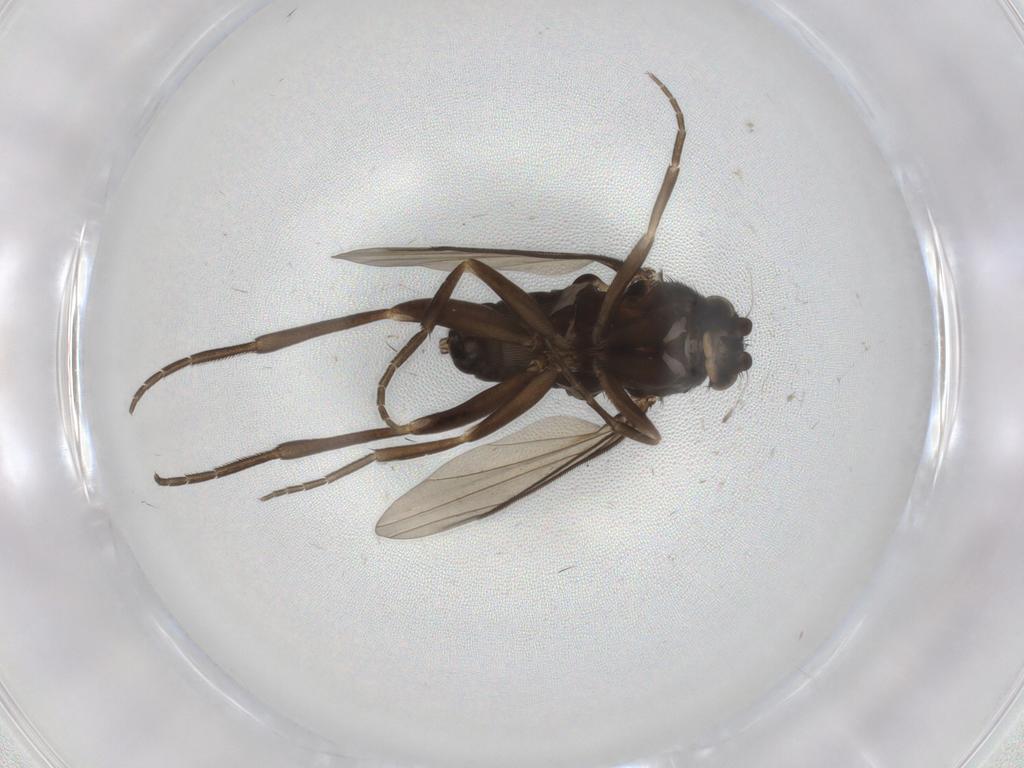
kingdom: Animalia
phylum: Arthropoda
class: Insecta
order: Diptera
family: Phoridae
